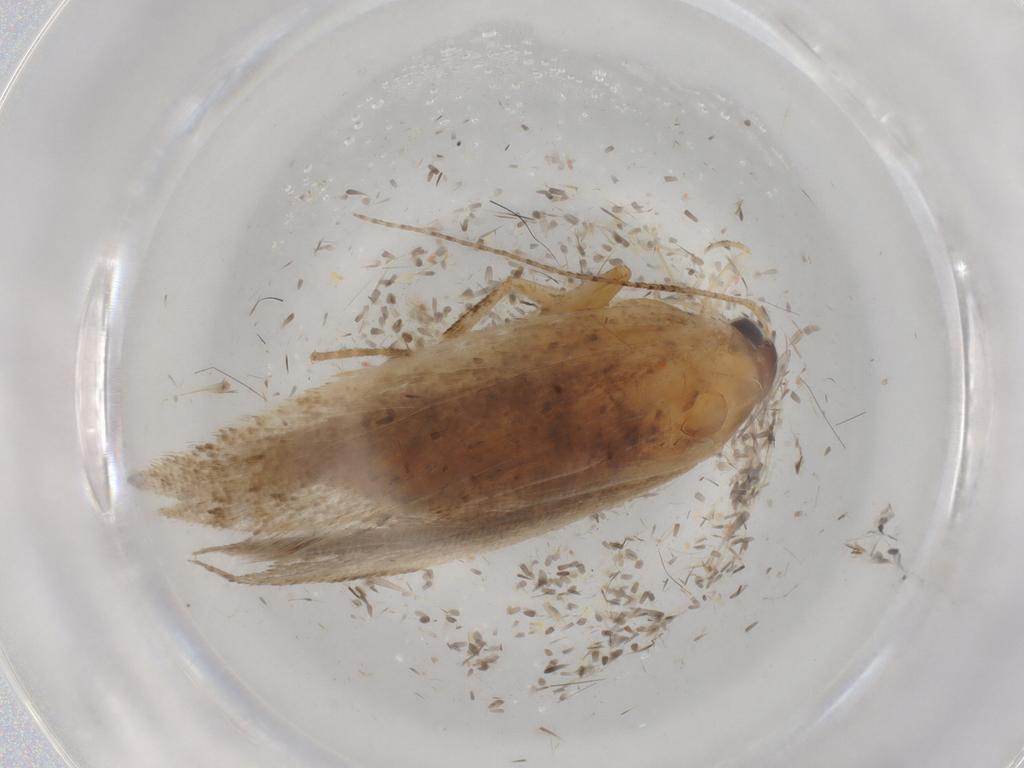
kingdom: Animalia
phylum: Arthropoda
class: Insecta
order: Lepidoptera
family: Gelechiidae
